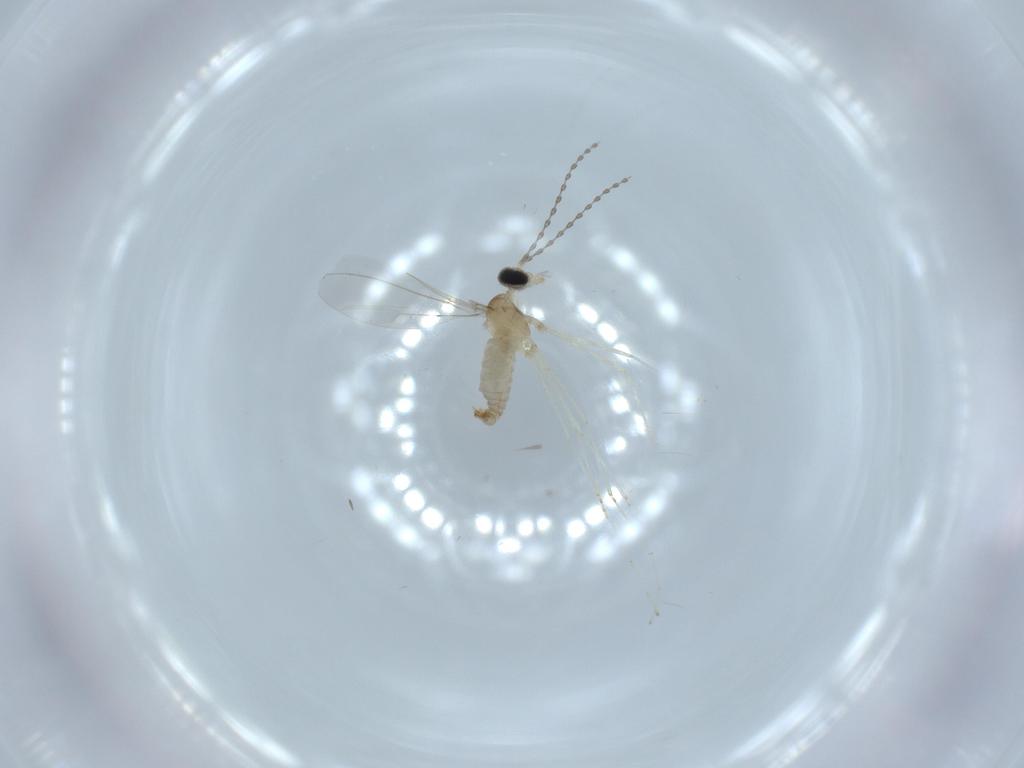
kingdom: Animalia
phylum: Arthropoda
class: Insecta
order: Diptera
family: Cecidomyiidae
